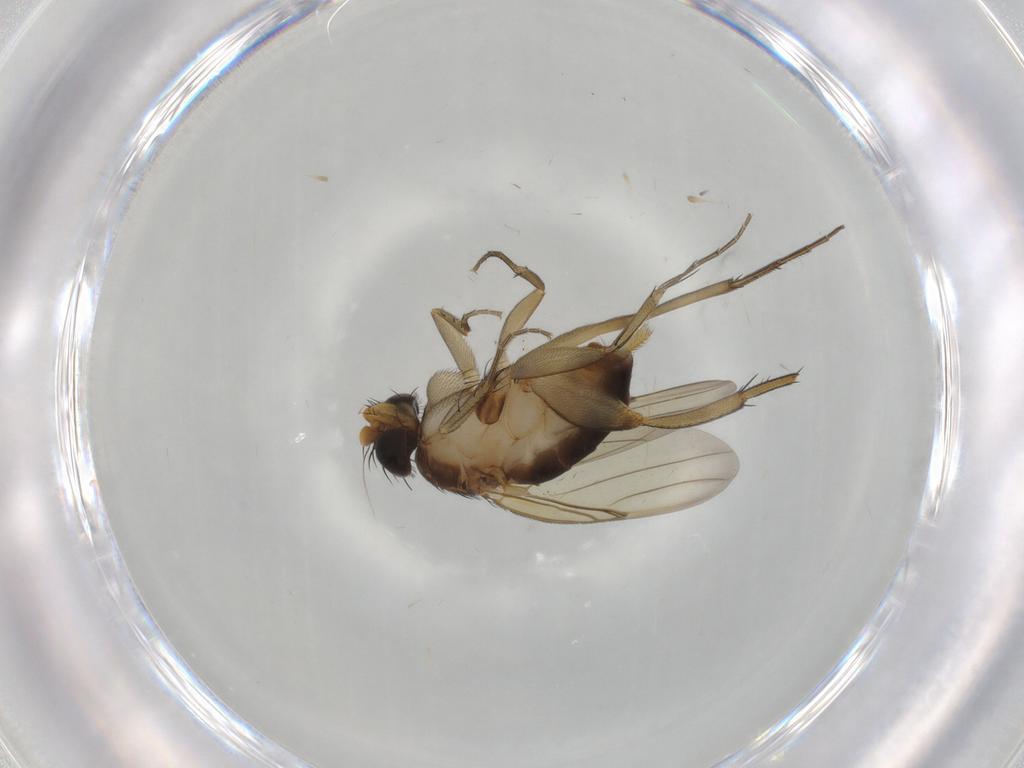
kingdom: Animalia
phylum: Arthropoda
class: Insecta
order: Diptera
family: Phoridae
